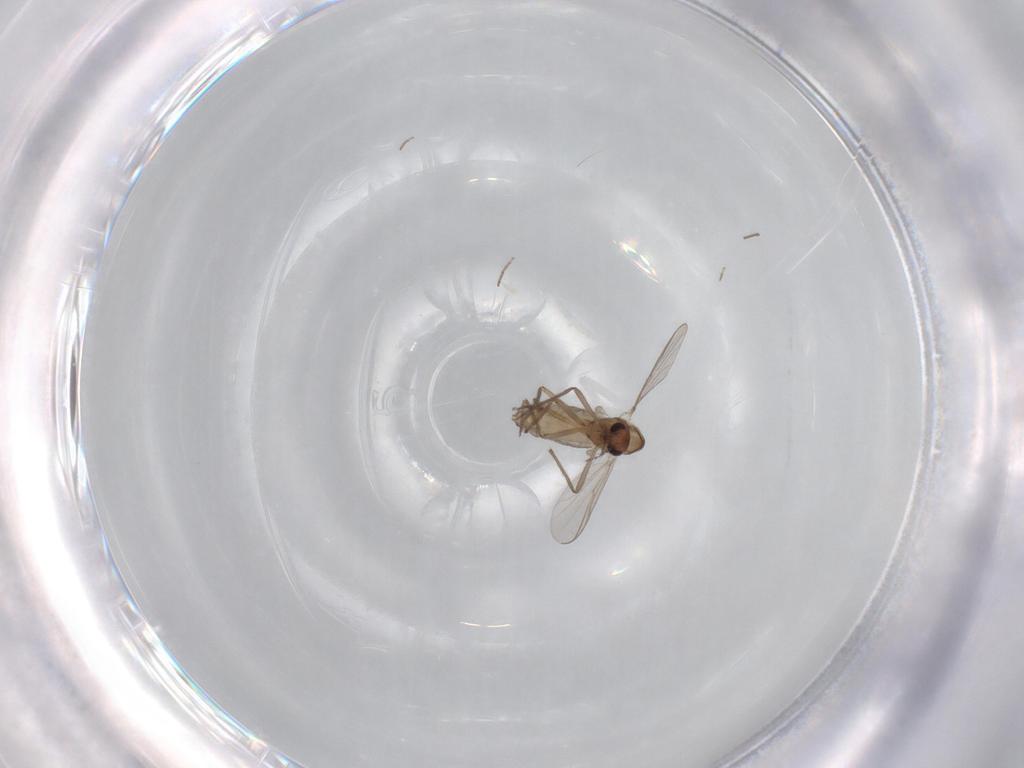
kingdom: Animalia
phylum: Arthropoda
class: Insecta
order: Diptera
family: Chironomidae
